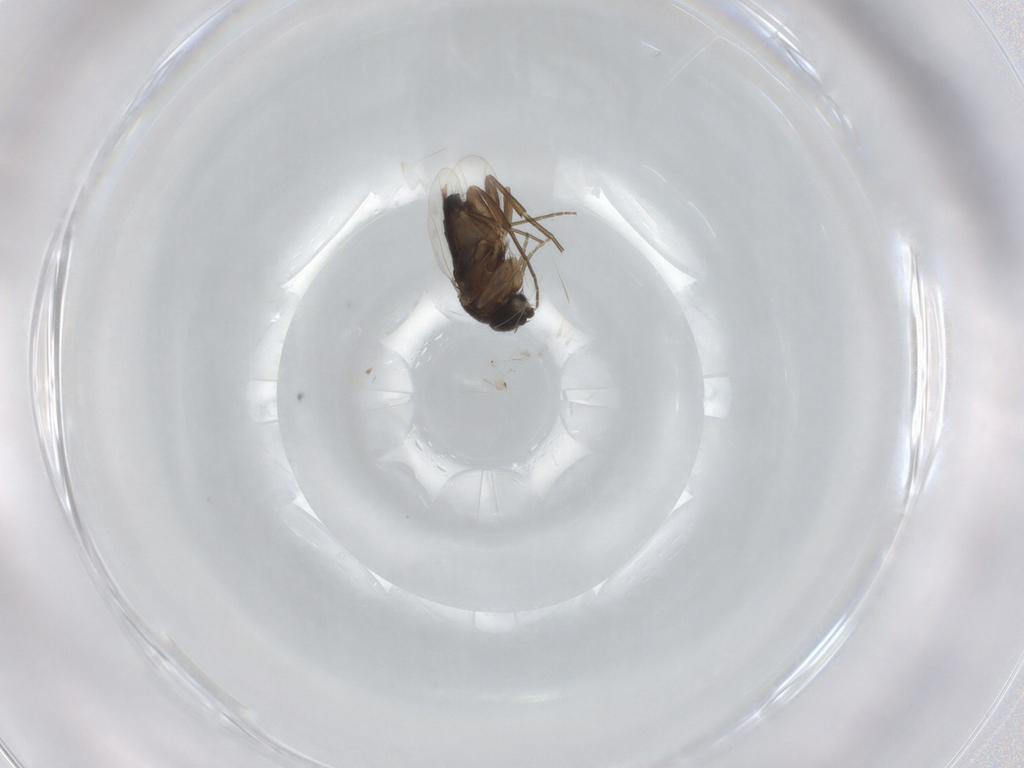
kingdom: Animalia
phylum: Arthropoda
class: Insecta
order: Diptera
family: Phoridae
